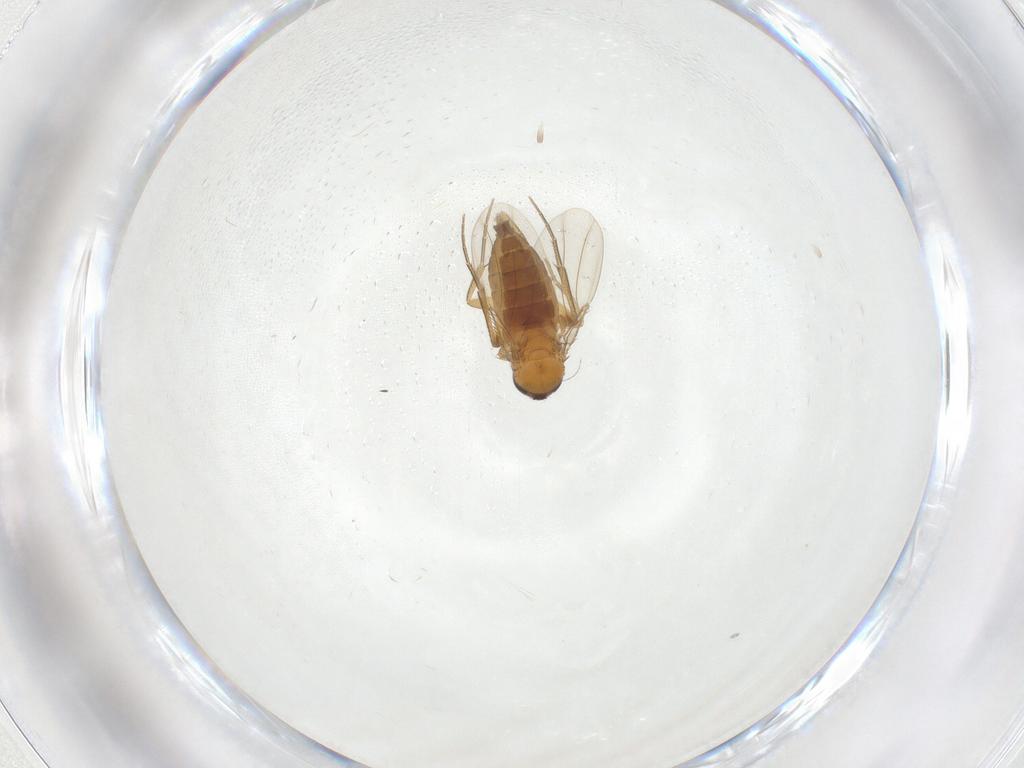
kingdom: Animalia
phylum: Arthropoda
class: Insecta
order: Diptera
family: Phoridae
